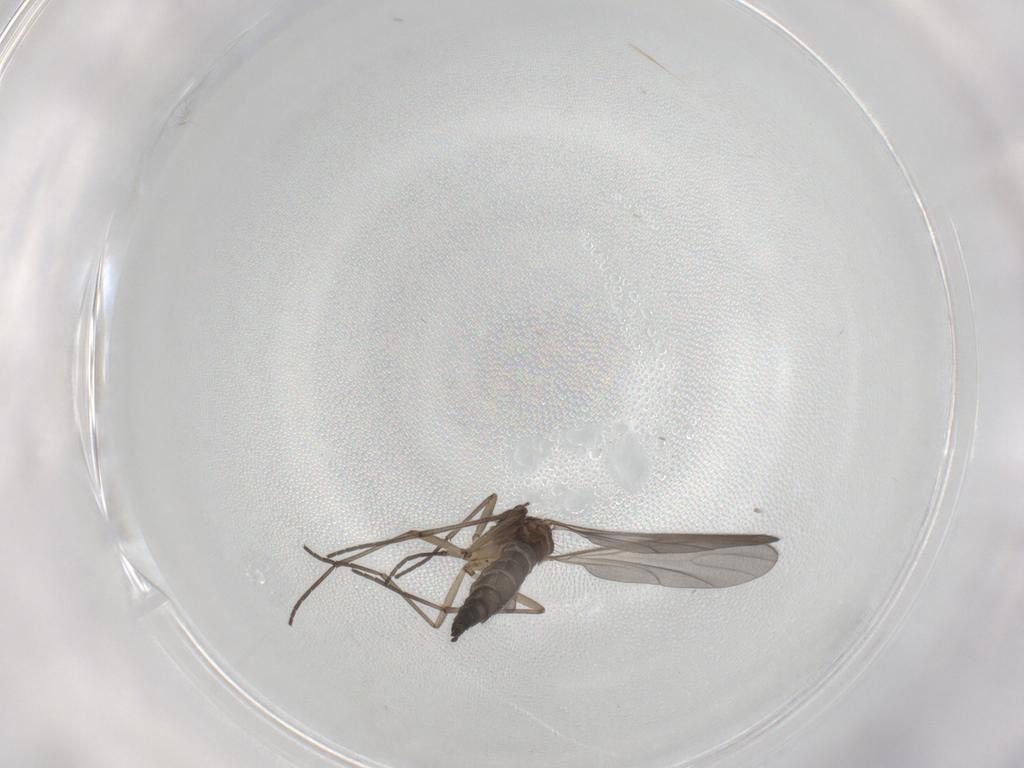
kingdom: Animalia
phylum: Arthropoda
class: Insecta
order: Diptera
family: Sciaridae
